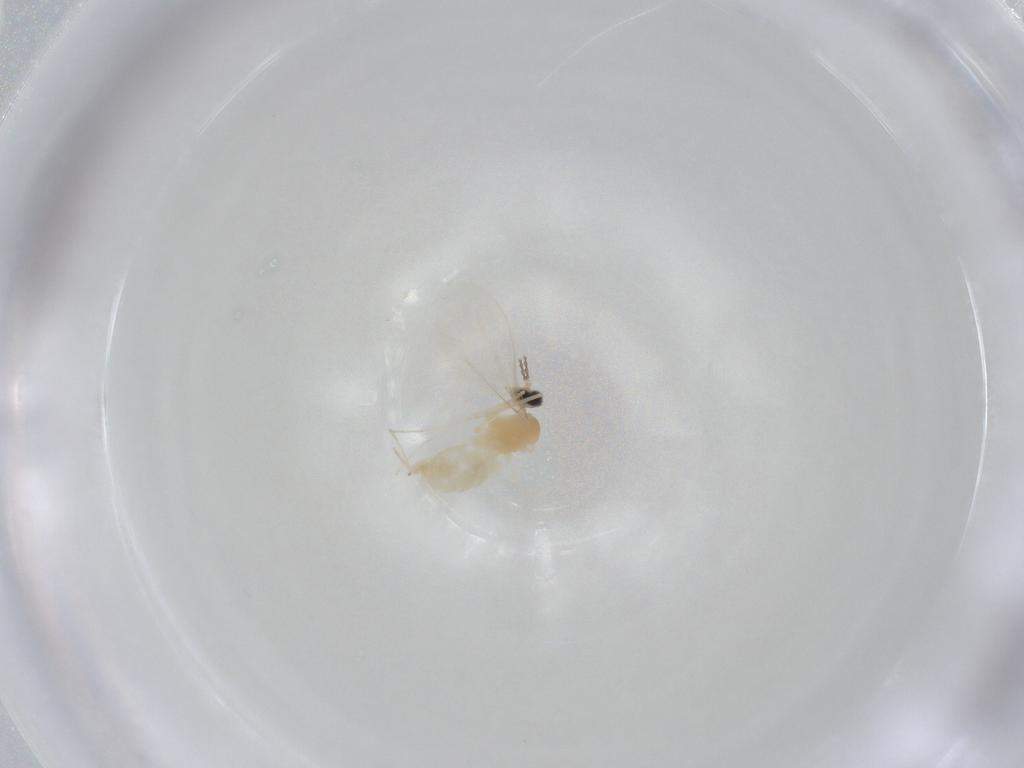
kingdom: Animalia
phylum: Arthropoda
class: Insecta
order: Diptera
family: Cecidomyiidae
